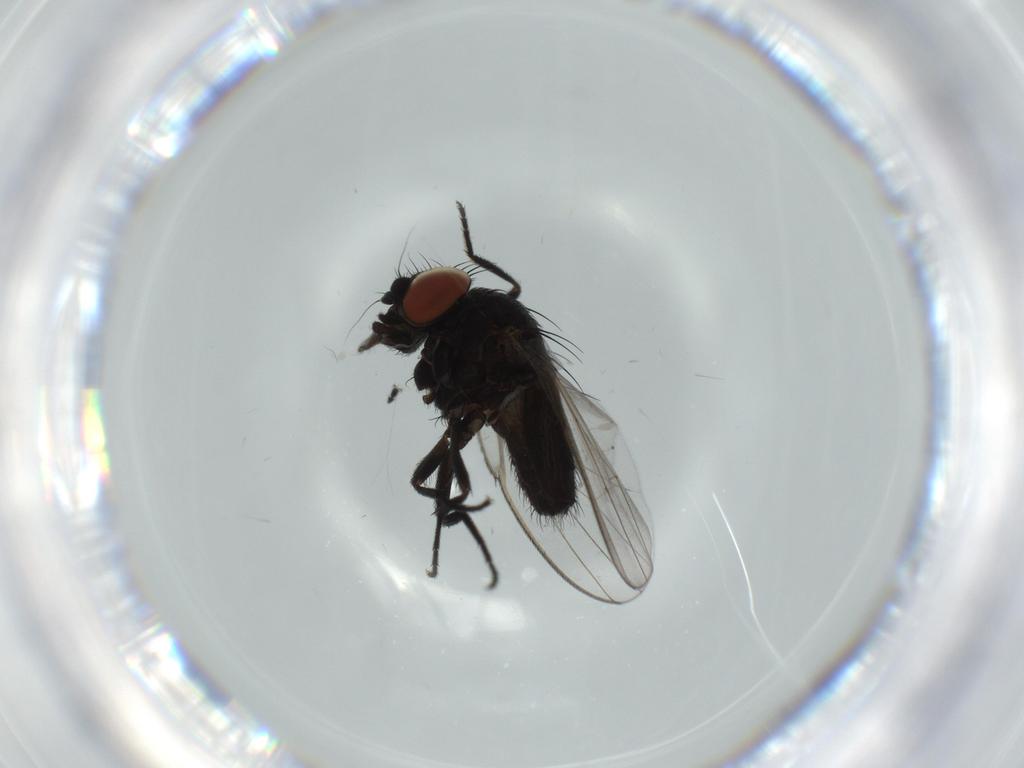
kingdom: Animalia
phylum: Arthropoda
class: Insecta
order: Diptera
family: Milichiidae
